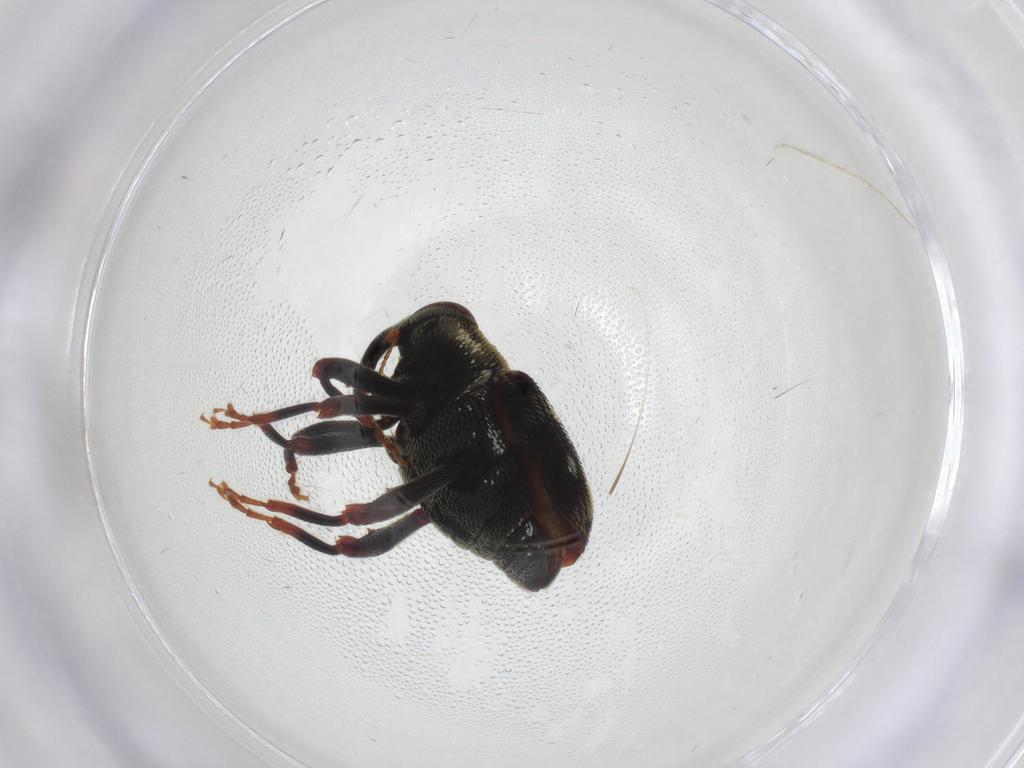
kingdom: Animalia
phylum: Arthropoda
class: Insecta
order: Coleoptera
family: Curculionidae
